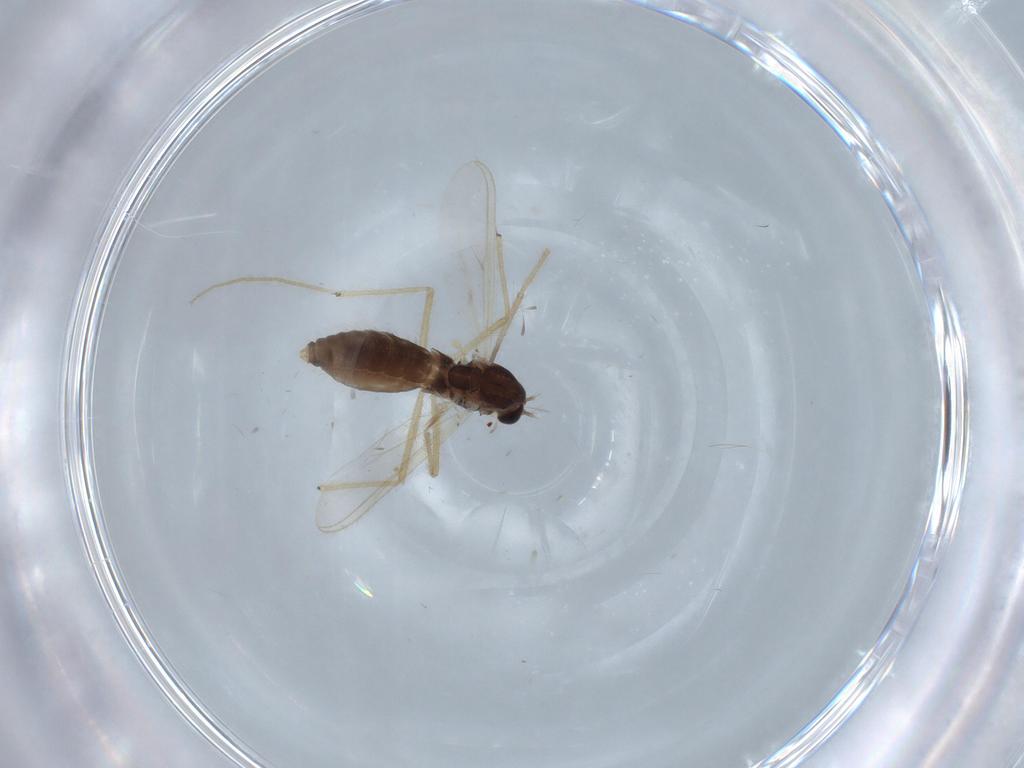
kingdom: Animalia
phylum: Arthropoda
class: Insecta
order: Diptera
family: Chironomidae
